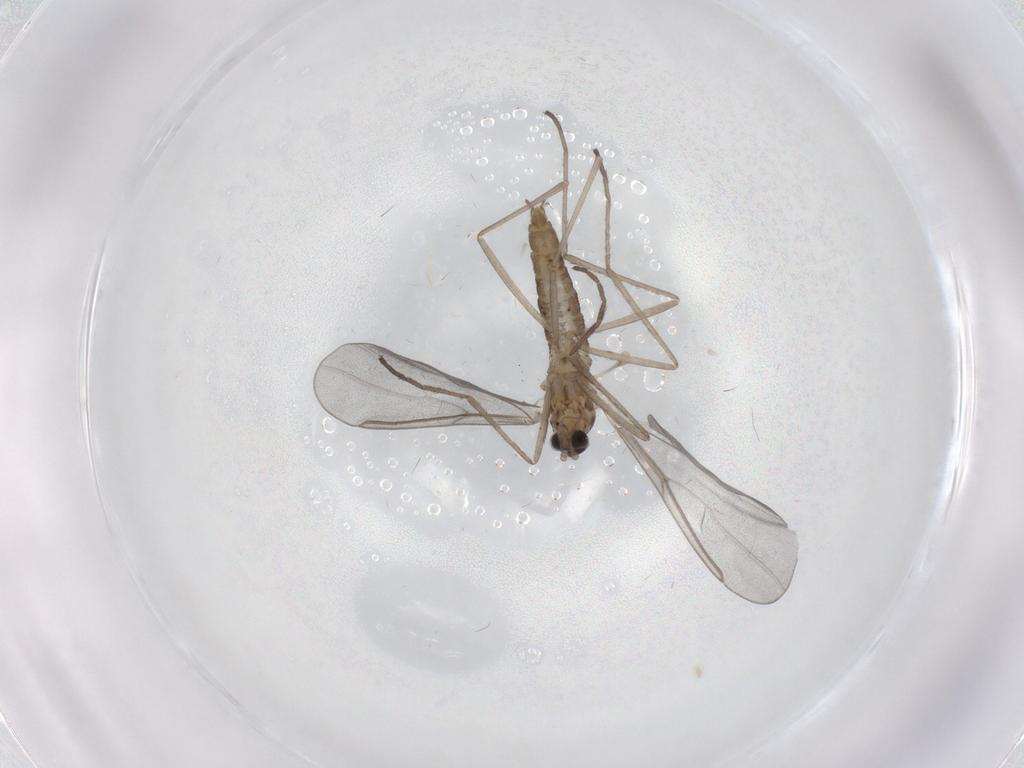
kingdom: Animalia
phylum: Arthropoda
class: Insecta
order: Diptera
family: Cecidomyiidae
